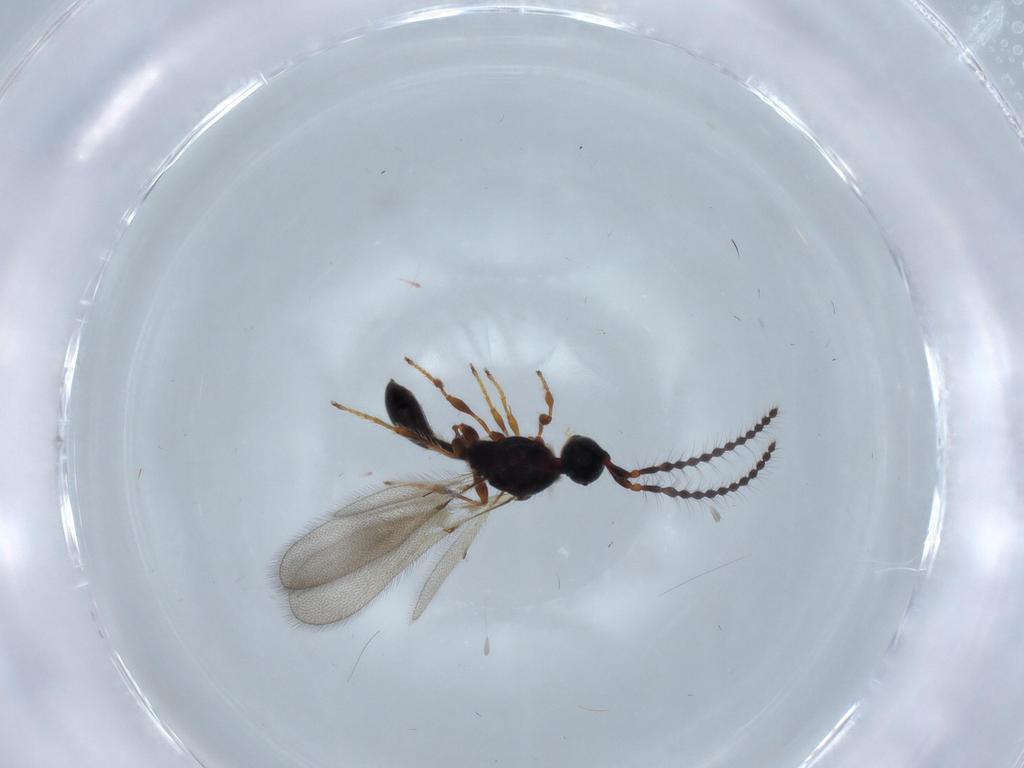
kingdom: Animalia
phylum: Arthropoda
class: Insecta
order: Hymenoptera
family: Diapriidae
